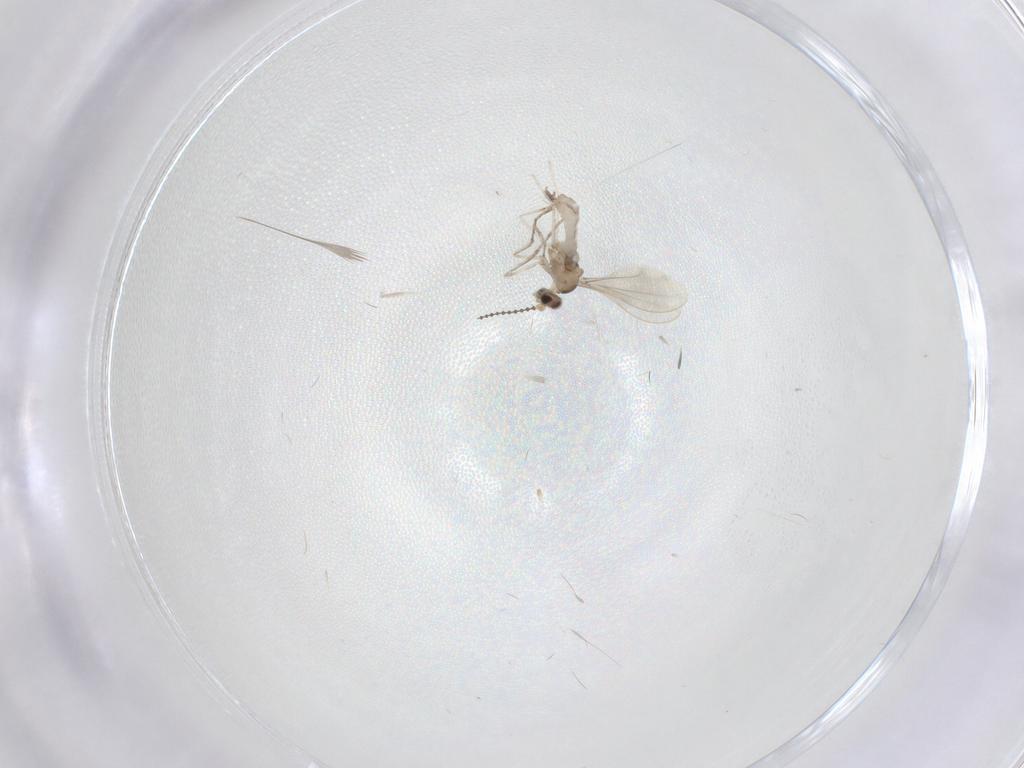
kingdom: Animalia
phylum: Arthropoda
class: Insecta
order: Diptera
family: Cecidomyiidae
